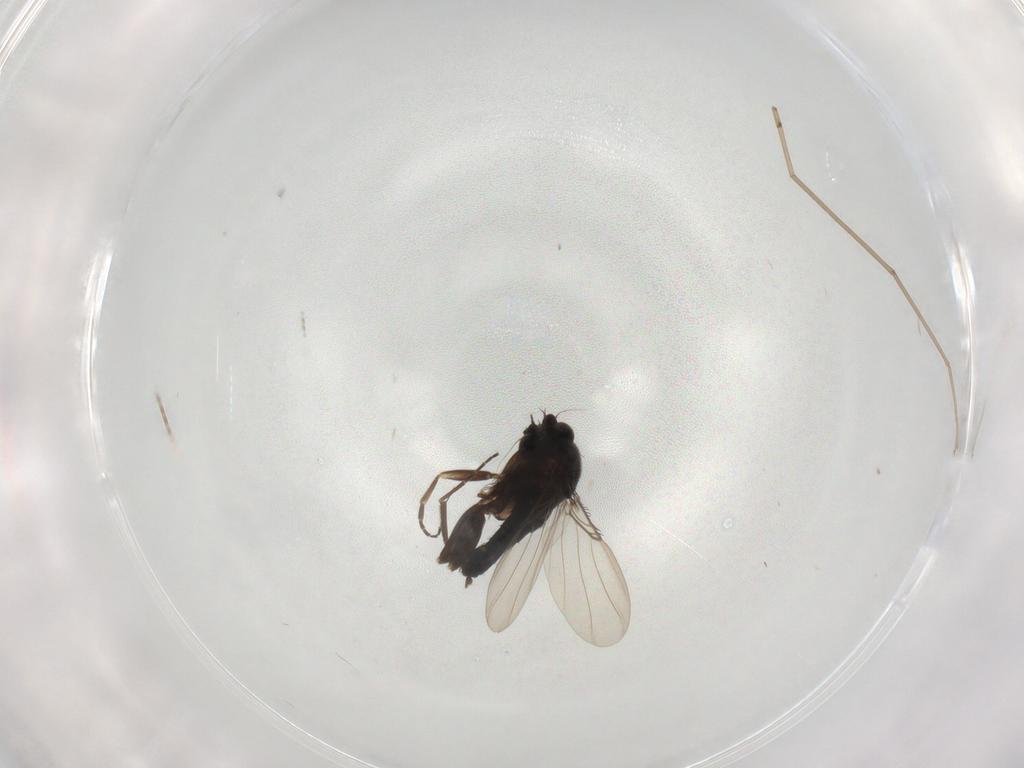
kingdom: Animalia
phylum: Arthropoda
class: Insecta
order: Diptera
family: Phoridae
